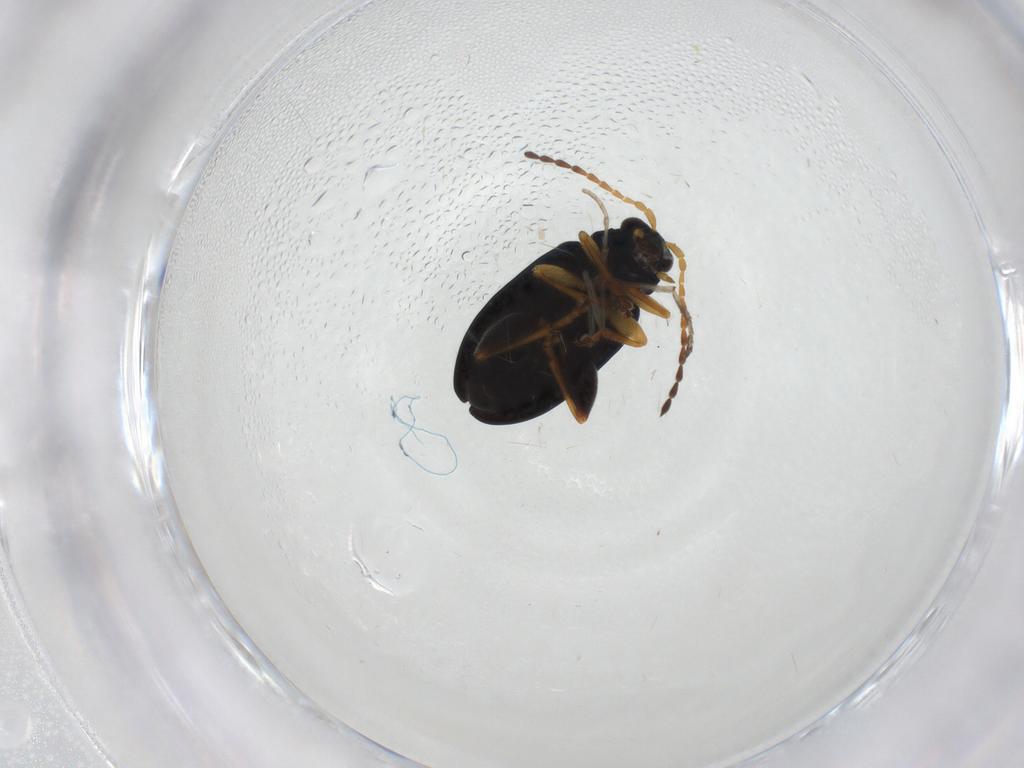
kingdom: Animalia
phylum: Arthropoda
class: Insecta
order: Coleoptera
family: Chrysomelidae
